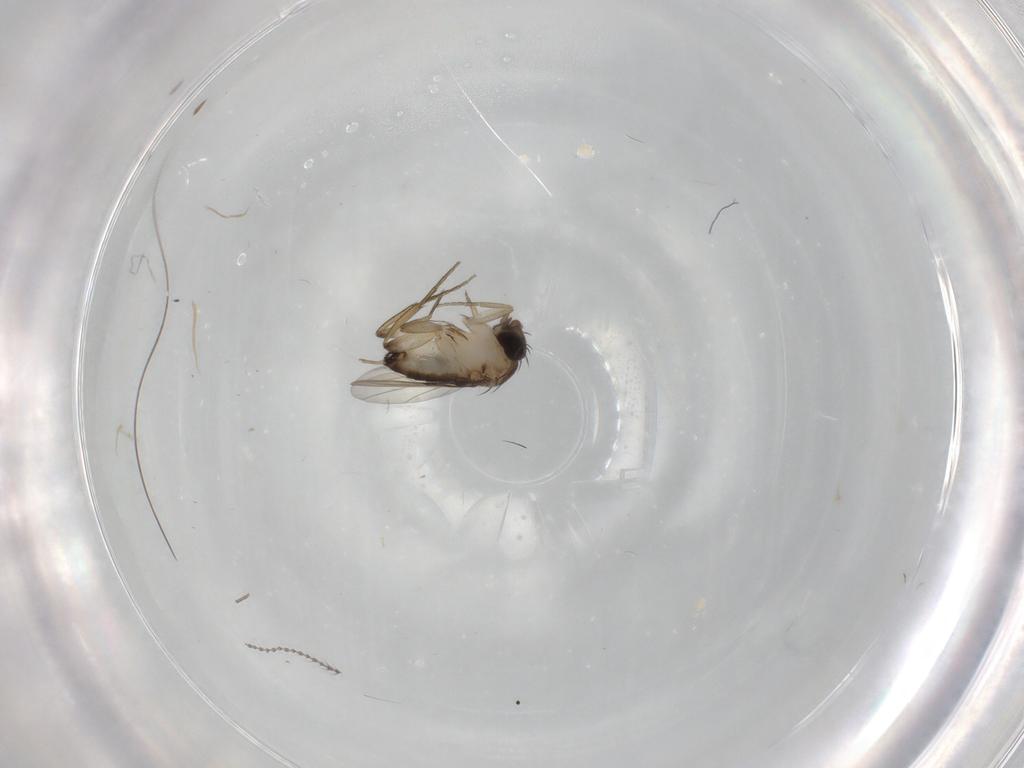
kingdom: Animalia
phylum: Arthropoda
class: Insecta
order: Diptera
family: Phoridae
